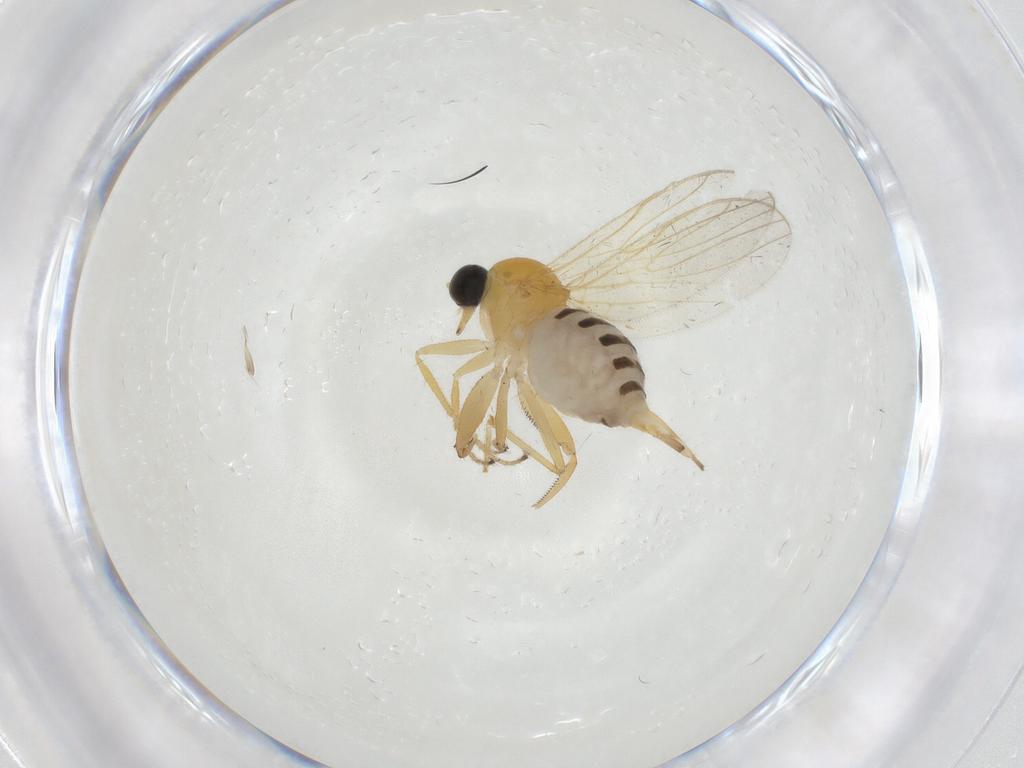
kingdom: Animalia
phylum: Arthropoda
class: Insecta
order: Diptera
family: Hybotidae
